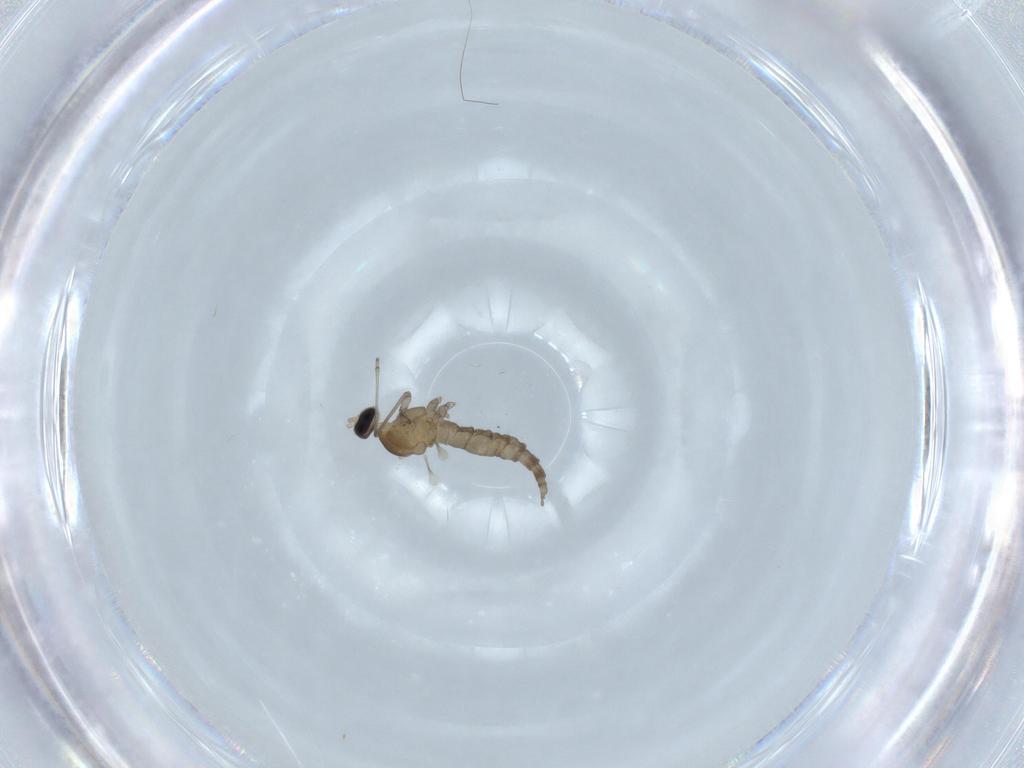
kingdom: Animalia
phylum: Arthropoda
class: Insecta
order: Diptera
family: Cecidomyiidae
